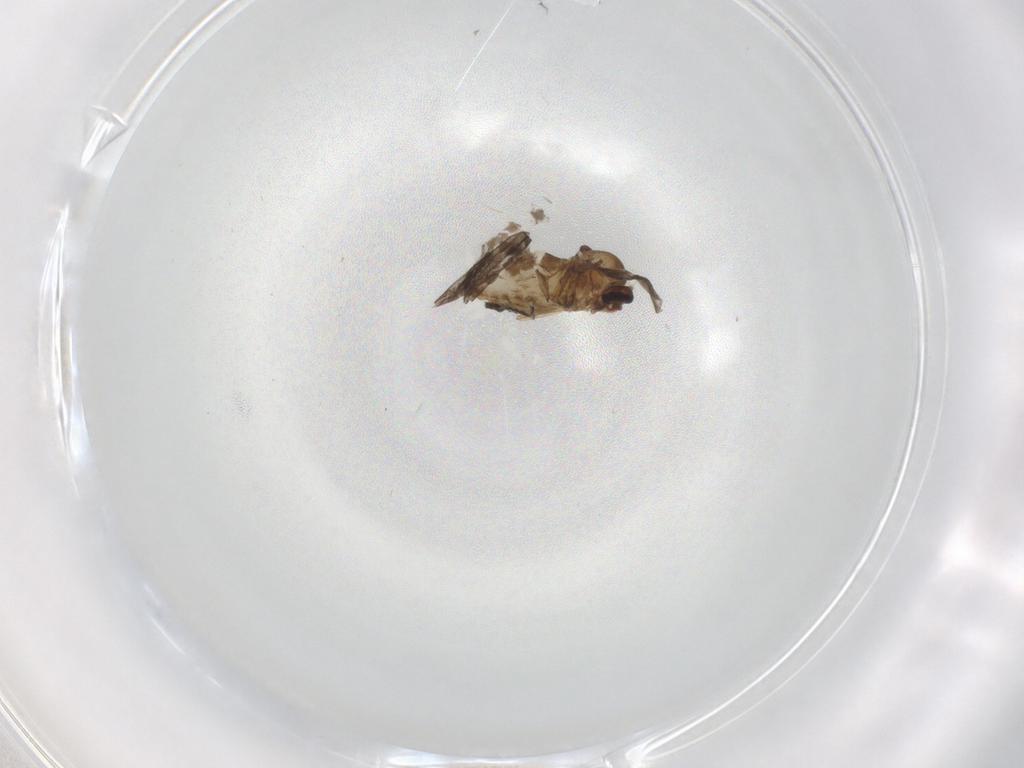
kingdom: Animalia
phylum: Arthropoda
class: Insecta
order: Diptera
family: Ceratopogonidae
